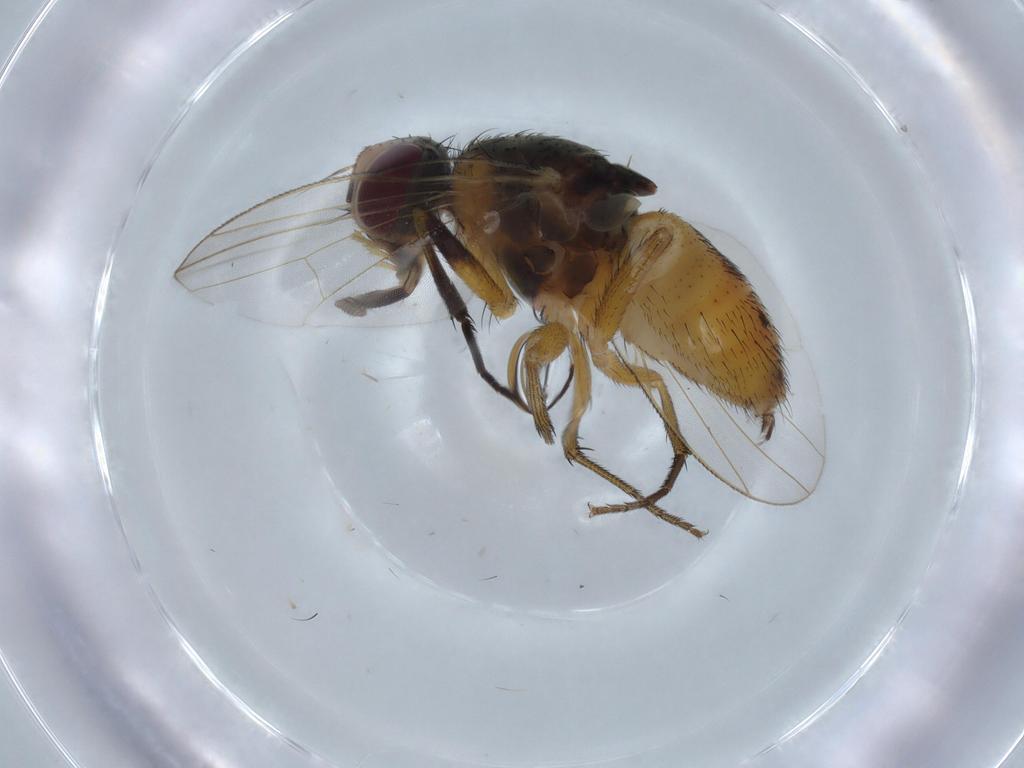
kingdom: Animalia
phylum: Arthropoda
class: Insecta
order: Diptera
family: Muscidae
